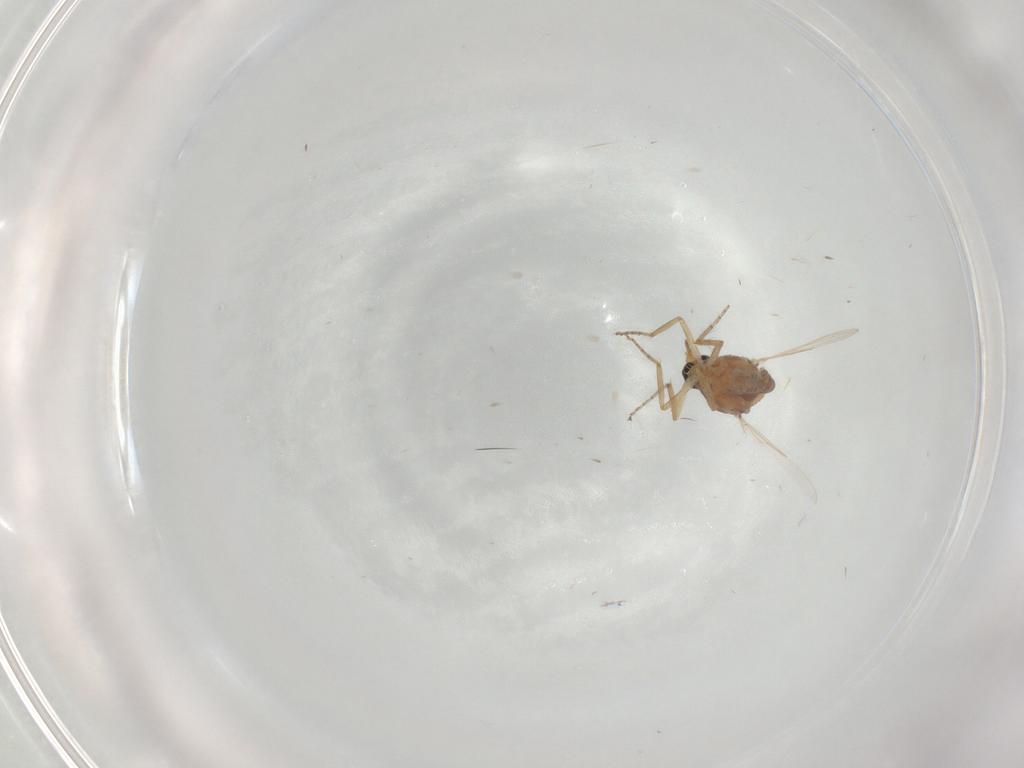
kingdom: Animalia
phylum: Arthropoda
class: Insecta
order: Diptera
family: Ceratopogonidae
